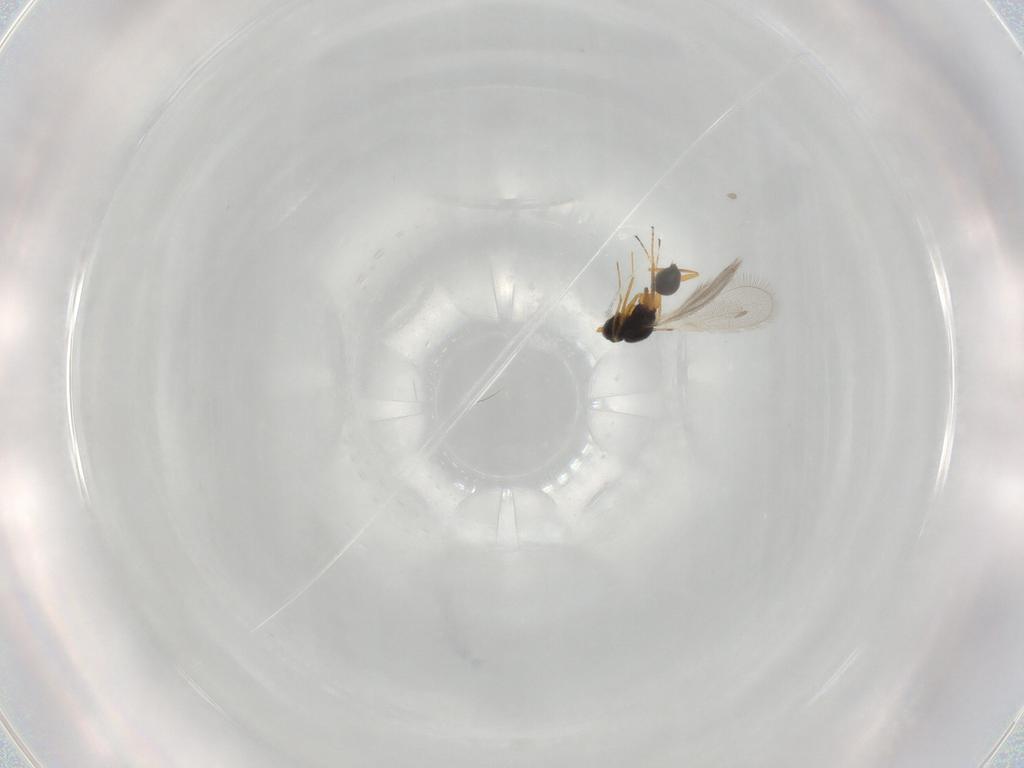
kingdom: Animalia
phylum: Arthropoda
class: Insecta
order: Hymenoptera
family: Mymaridae
